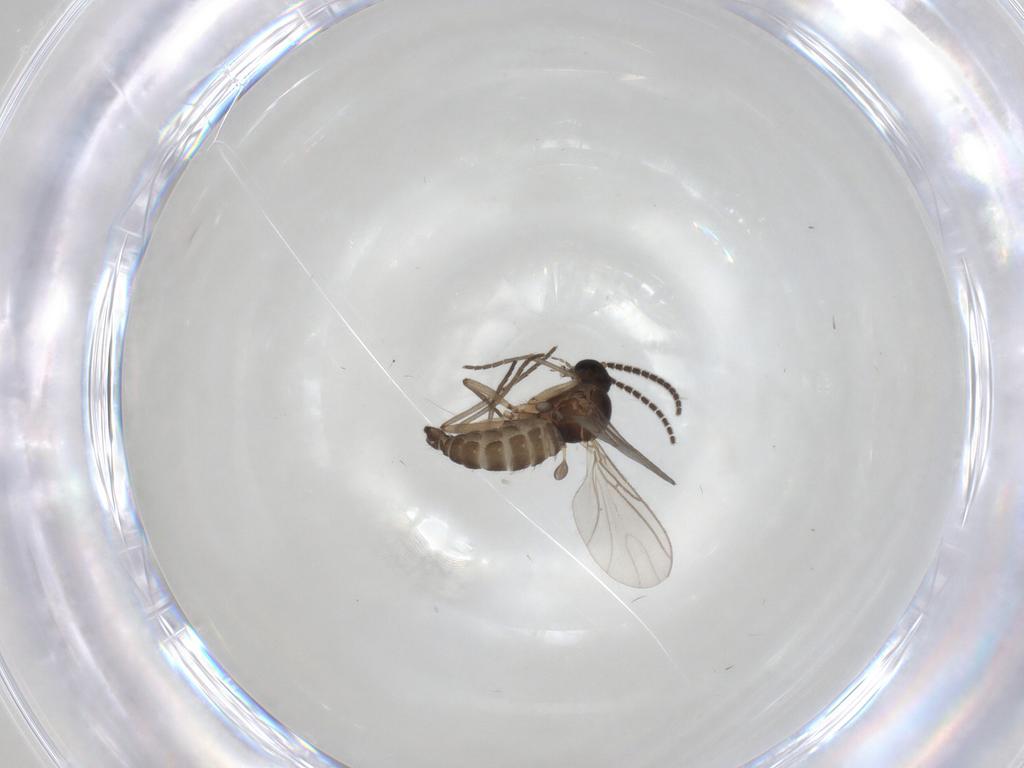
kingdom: Animalia
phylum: Arthropoda
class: Insecta
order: Diptera
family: Sciaridae
